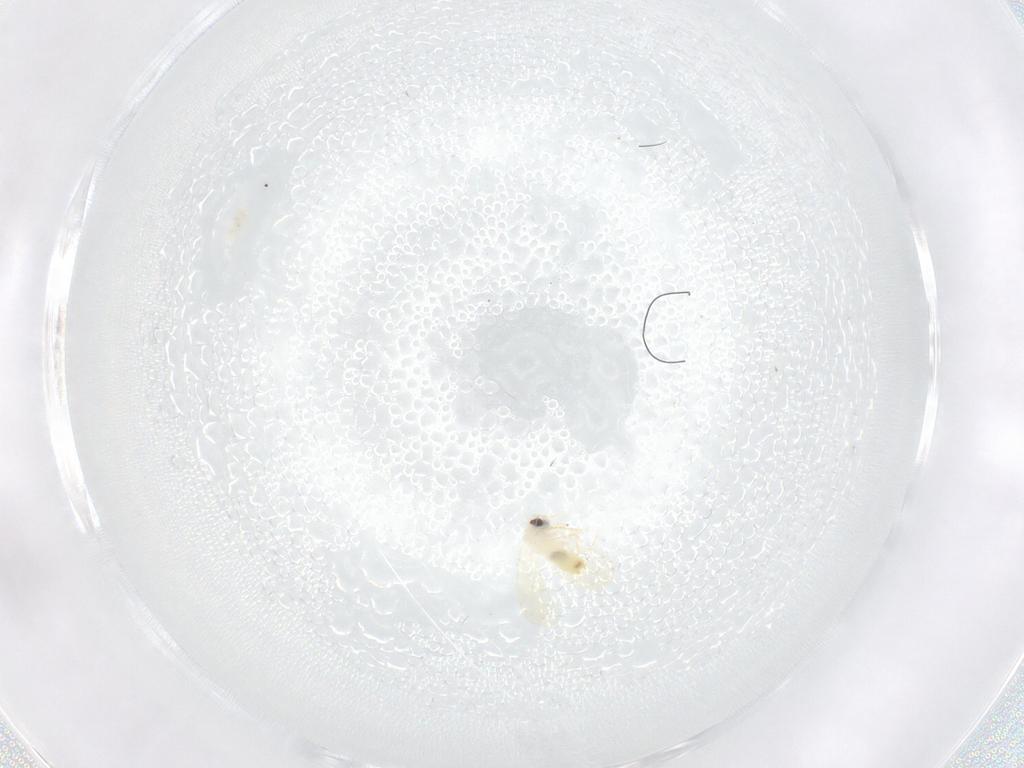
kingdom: Animalia
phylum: Arthropoda
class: Insecta
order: Hemiptera
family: Aleyrodidae
